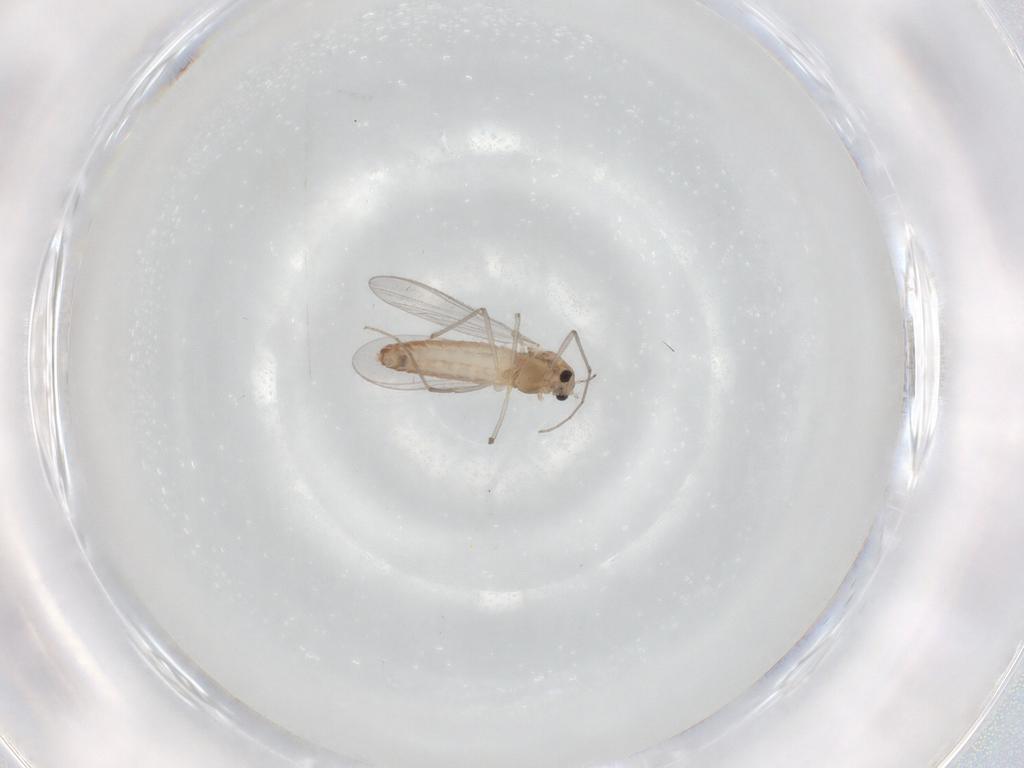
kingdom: Animalia
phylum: Arthropoda
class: Insecta
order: Diptera
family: Chironomidae
